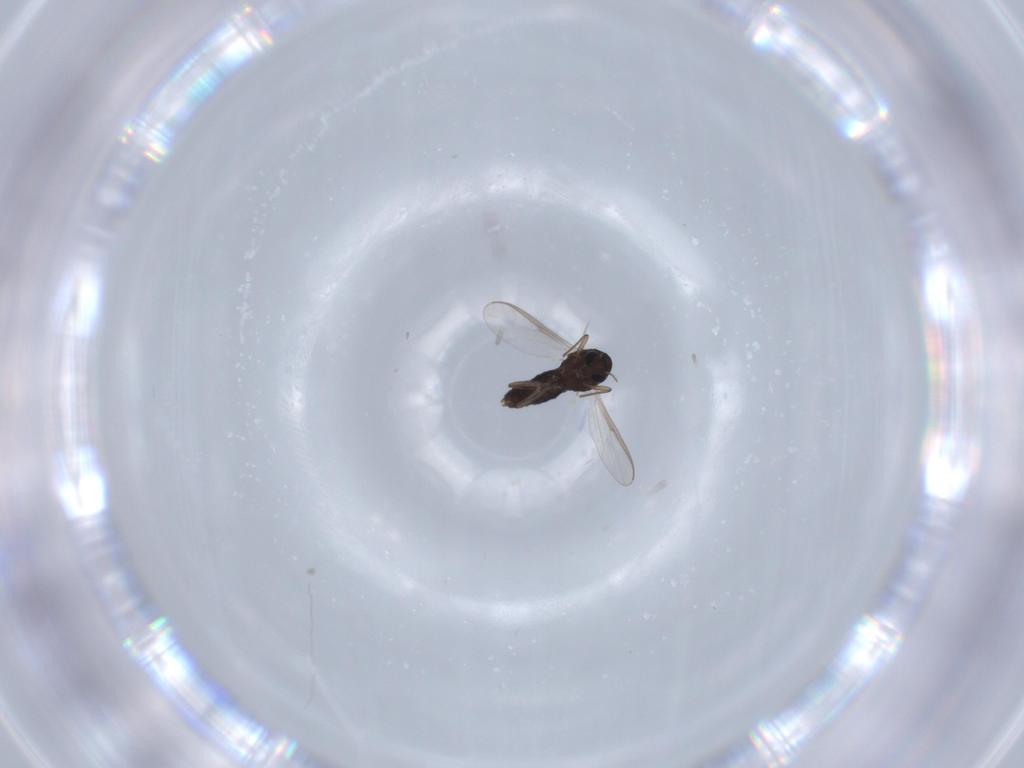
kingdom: Animalia
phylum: Arthropoda
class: Insecta
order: Diptera
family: Chironomidae
